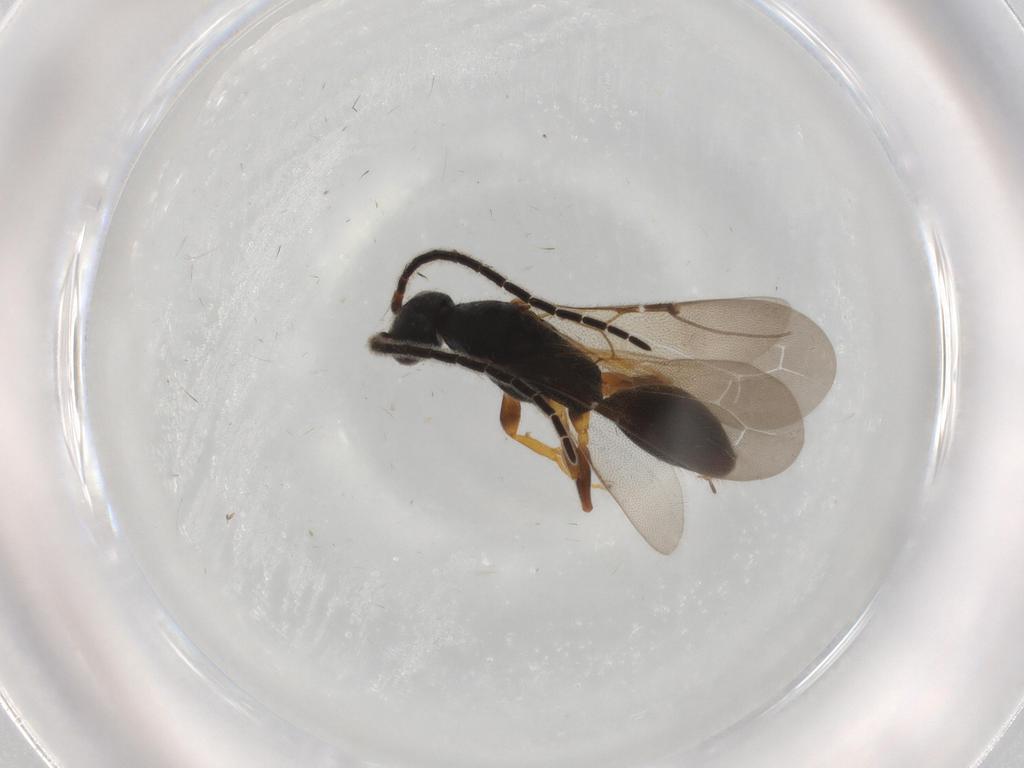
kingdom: Animalia
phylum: Arthropoda
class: Insecta
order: Hymenoptera
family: Bethylidae
